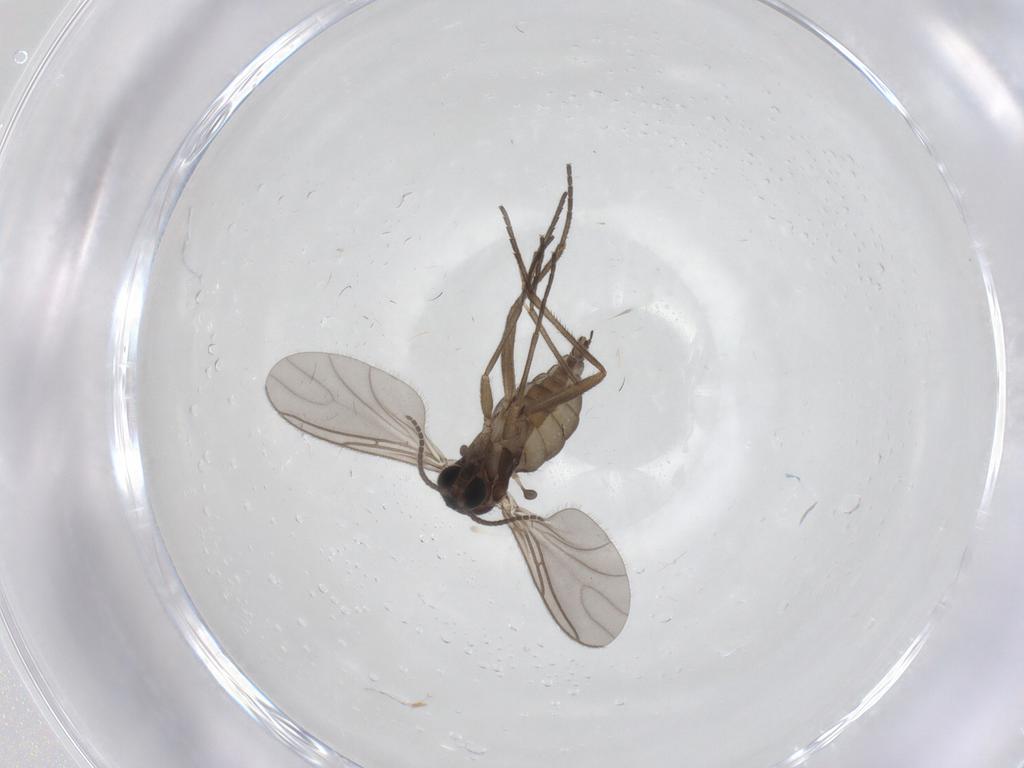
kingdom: Animalia
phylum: Arthropoda
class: Insecta
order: Diptera
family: Sciaridae
